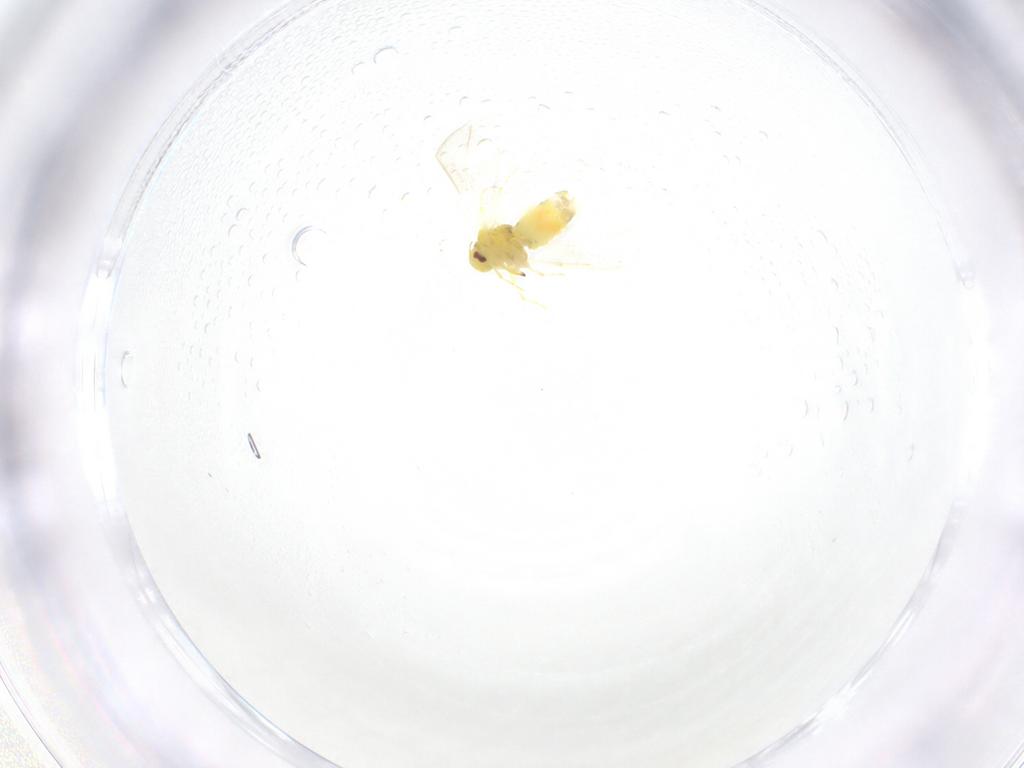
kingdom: Animalia
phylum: Arthropoda
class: Insecta
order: Hemiptera
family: Aleyrodidae
